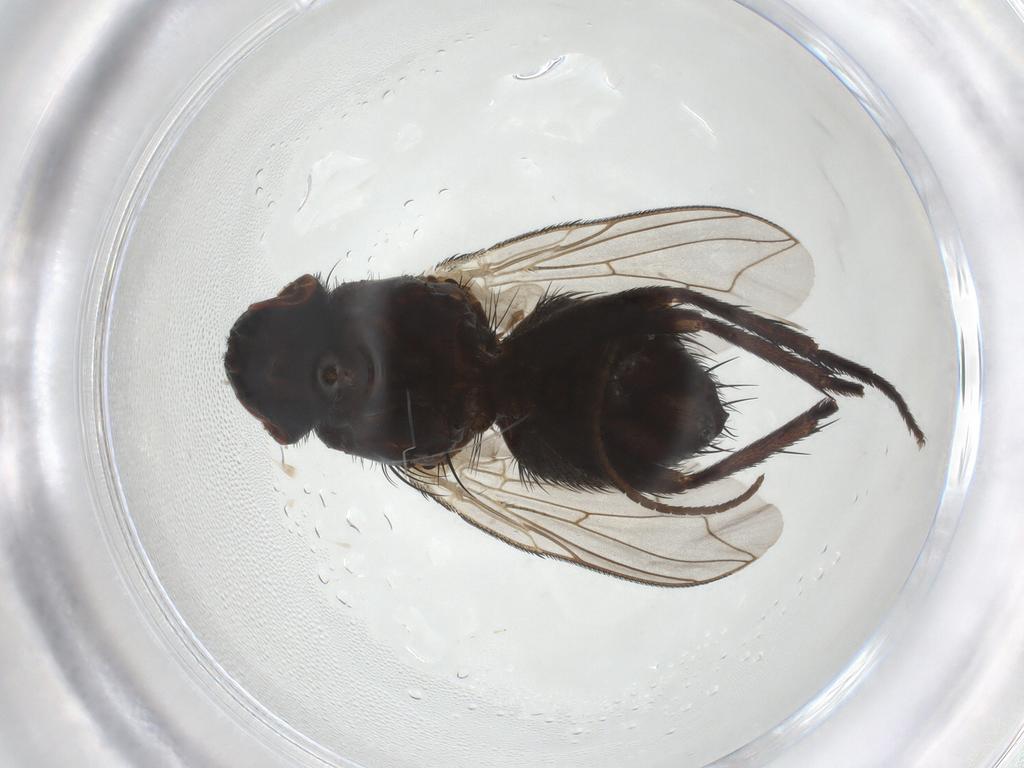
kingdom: Animalia
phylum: Arthropoda
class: Insecta
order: Diptera
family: Sarcophagidae
